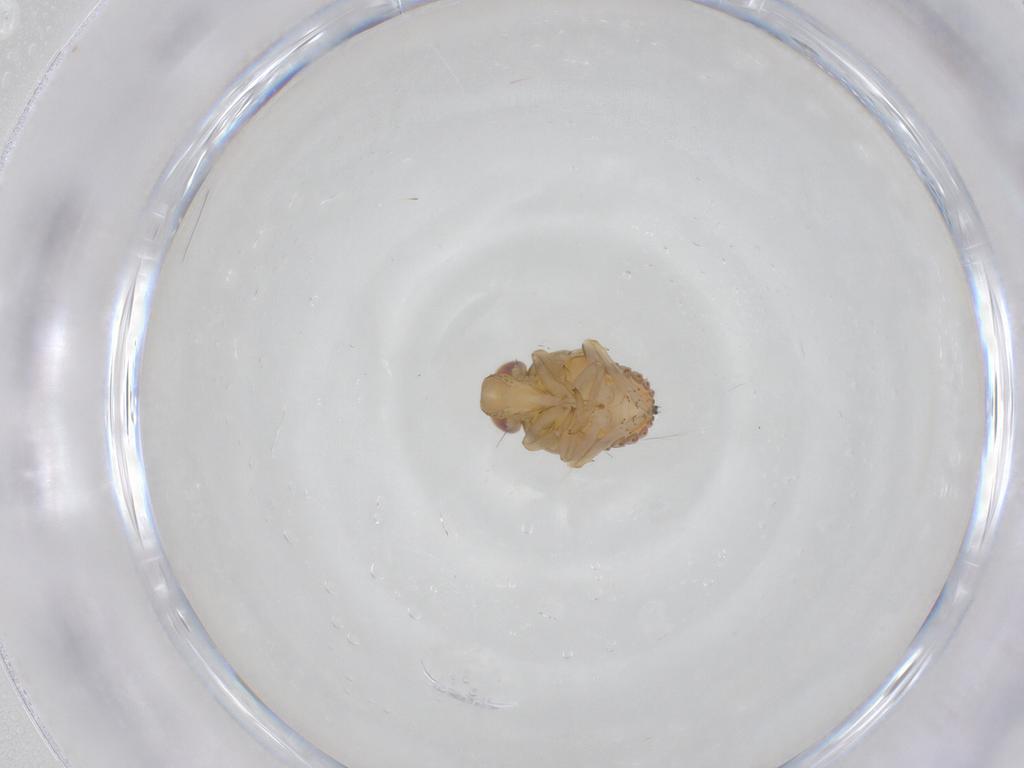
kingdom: Animalia
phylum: Arthropoda
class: Insecta
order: Hemiptera
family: Issidae
